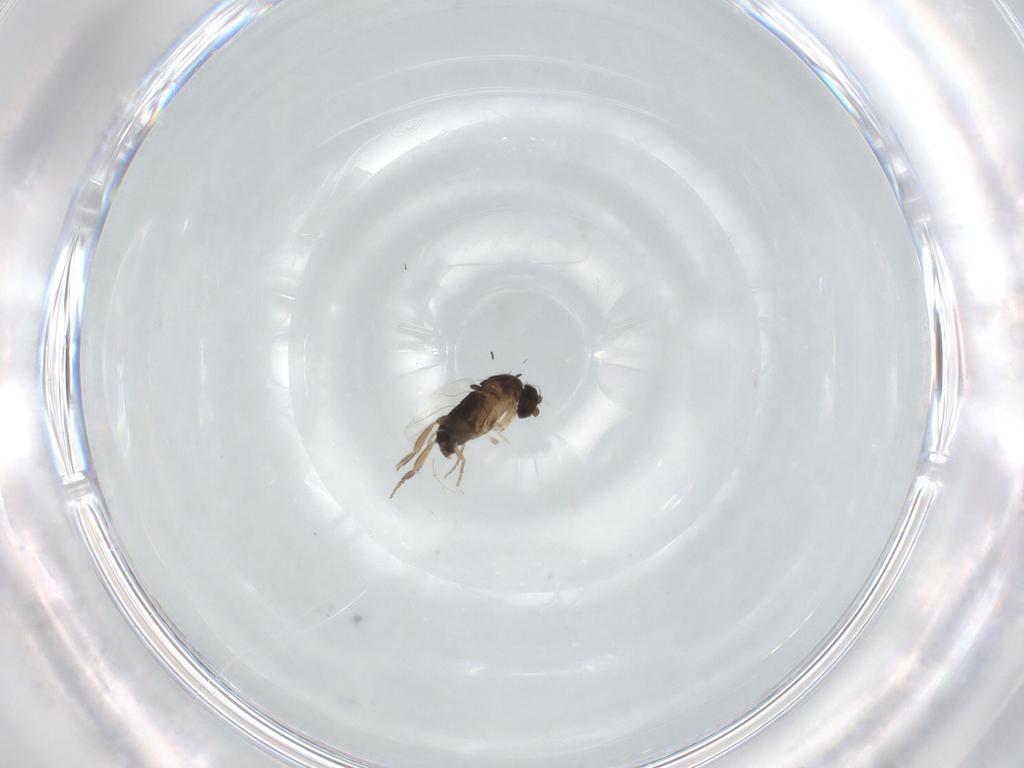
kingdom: Animalia
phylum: Arthropoda
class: Insecta
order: Diptera
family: Phoridae
